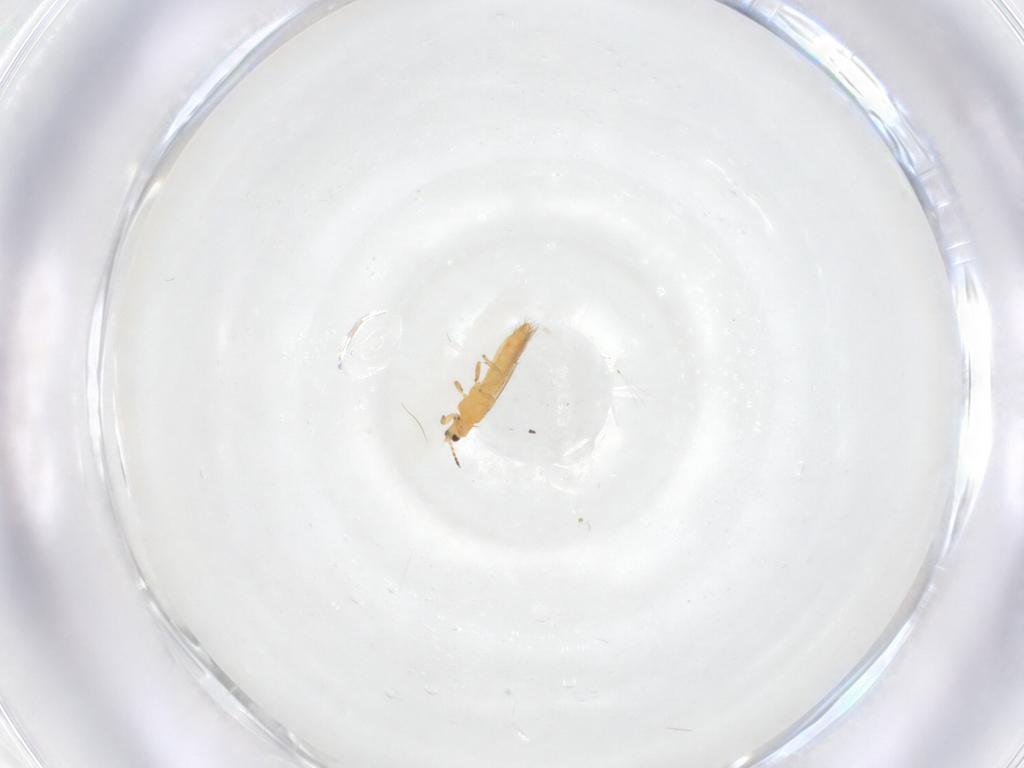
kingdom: Animalia
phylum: Arthropoda
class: Insecta
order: Thysanoptera
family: Thripidae
